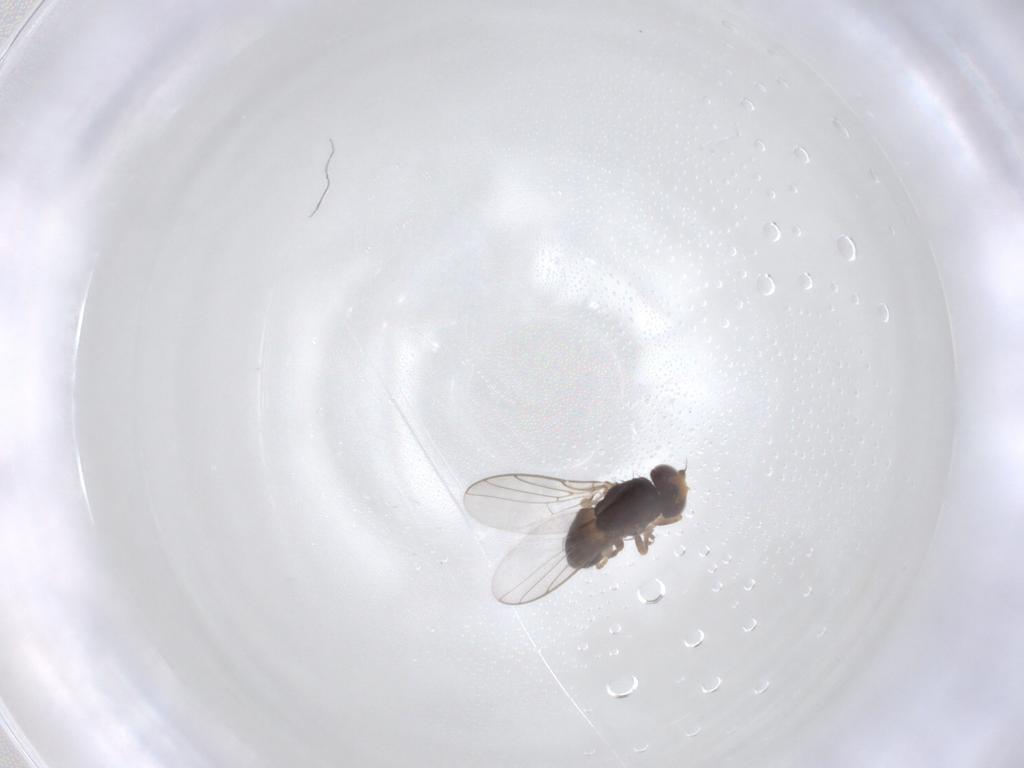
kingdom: Animalia
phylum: Arthropoda
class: Insecta
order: Diptera
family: Chloropidae
